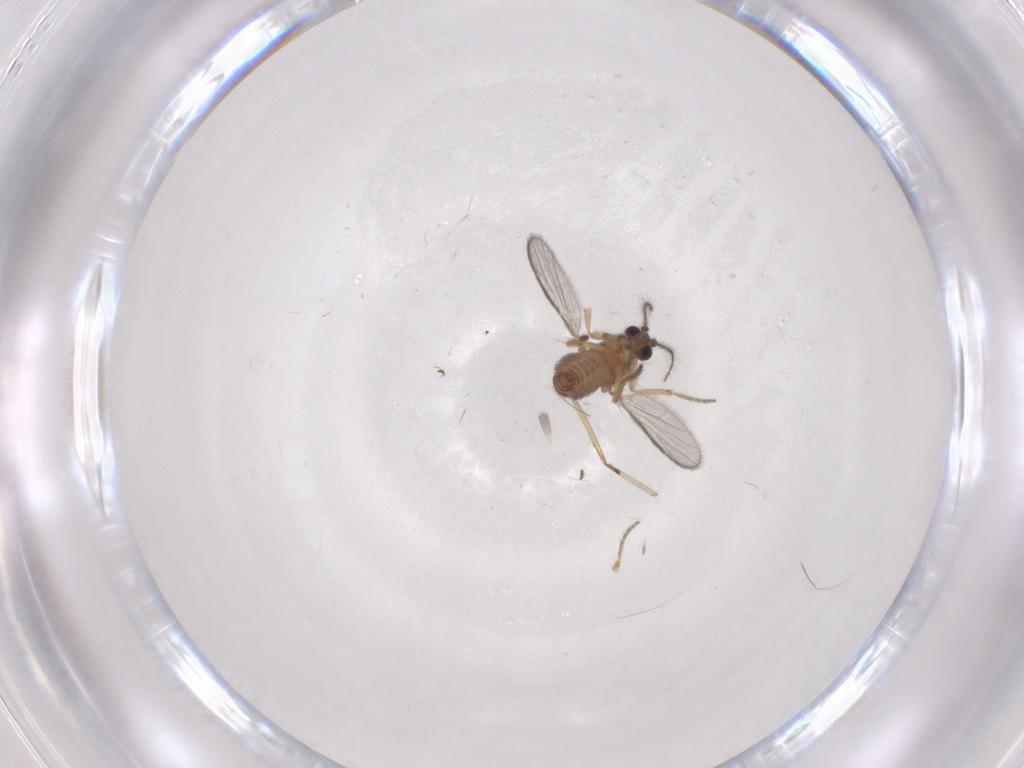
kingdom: Animalia
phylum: Arthropoda
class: Insecta
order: Diptera
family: Ceratopogonidae
